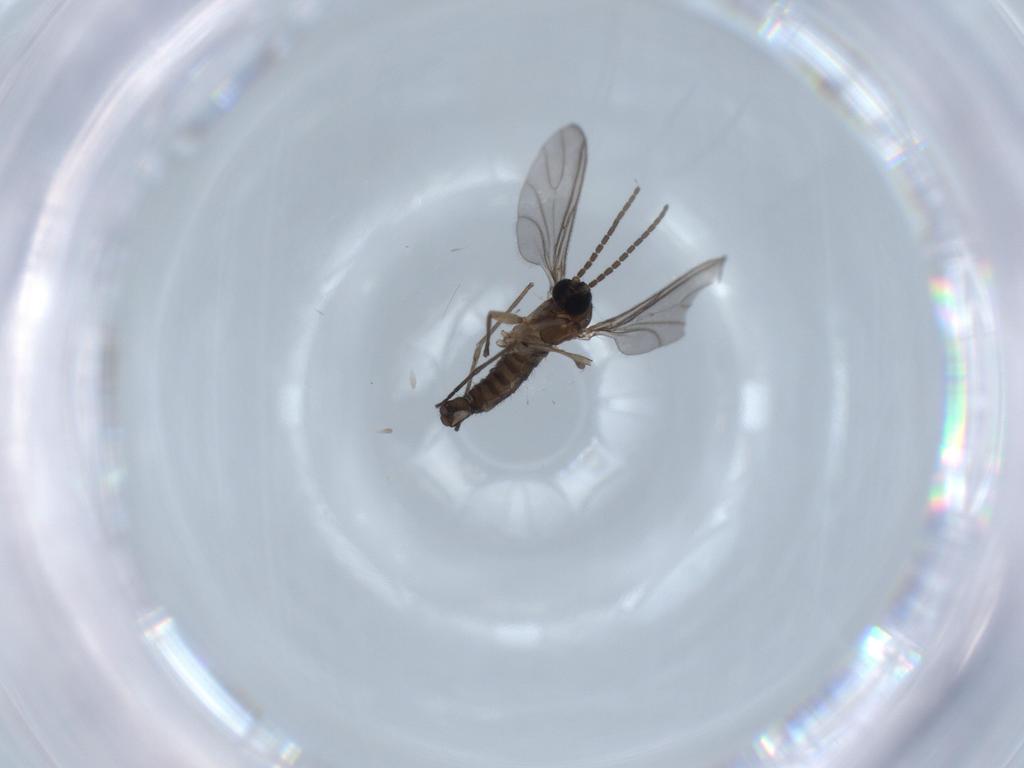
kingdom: Animalia
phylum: Arthropoda
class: Insecta
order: Diptera
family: Sciaridae
